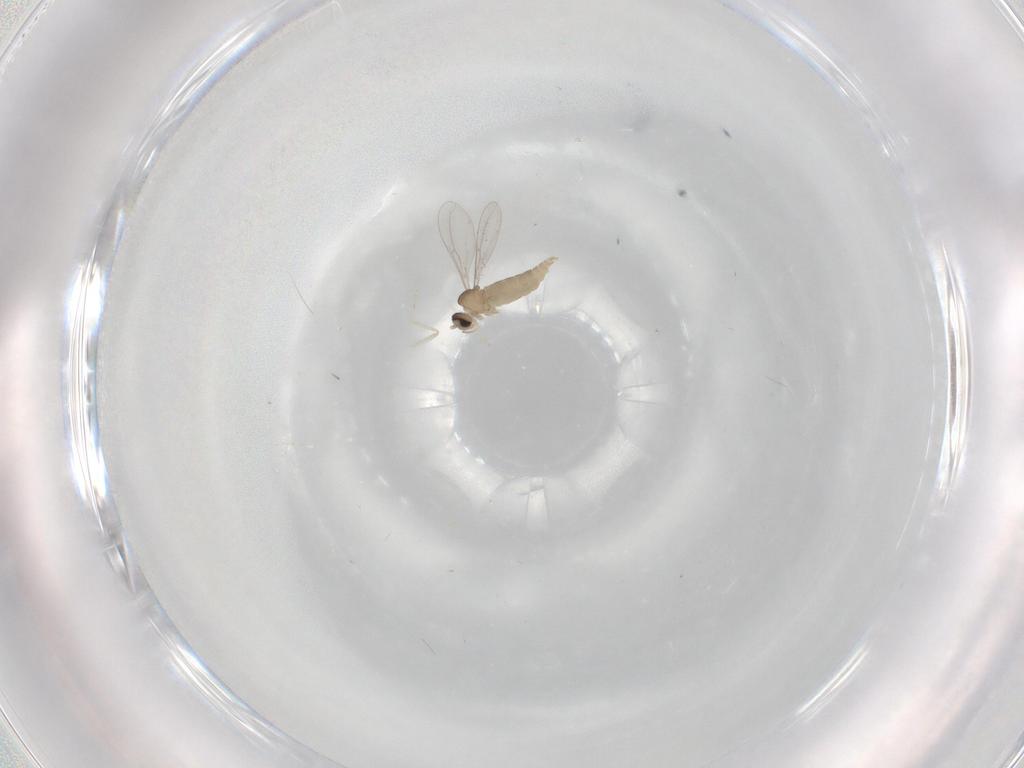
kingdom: Animalia
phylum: Arthropoda
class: Insecta
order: Diptera
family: Cecidomyiidae
